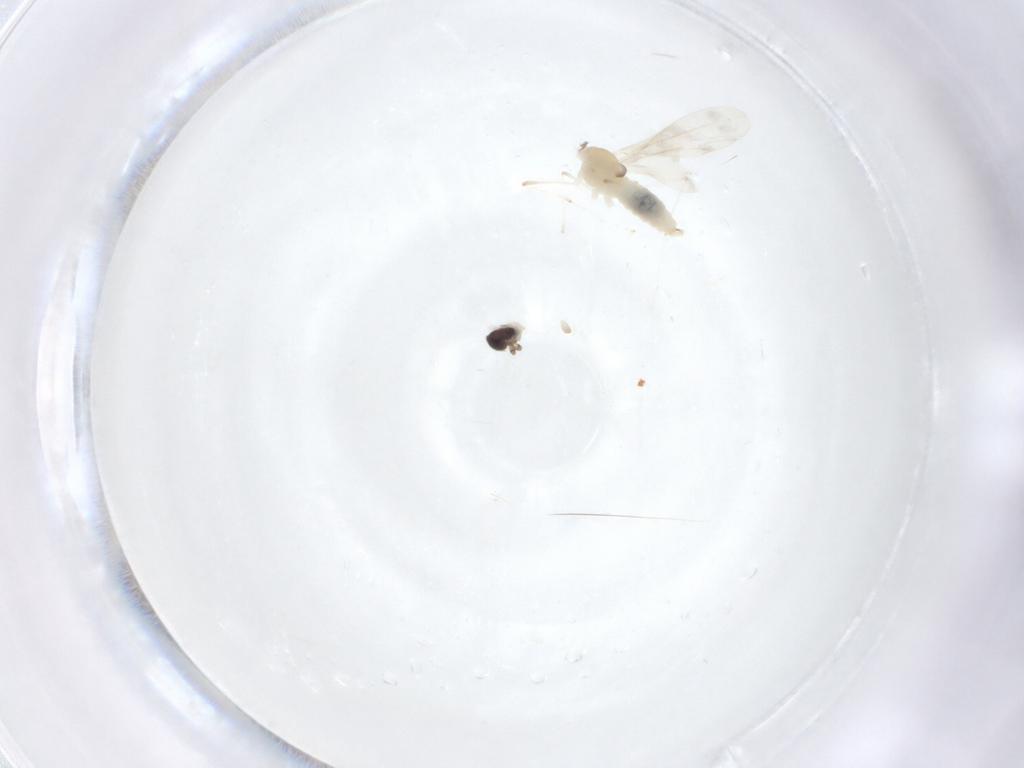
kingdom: Animalia
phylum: Arthropoda
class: Insecta
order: Diptera
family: Cecidomyiidae
